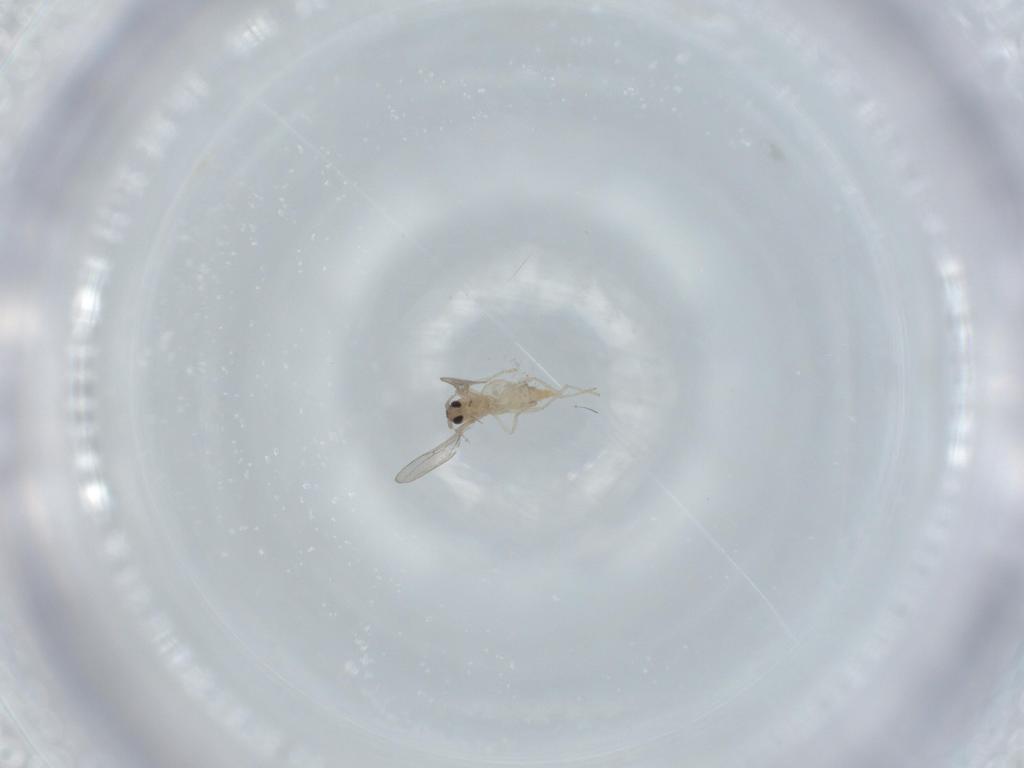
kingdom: Animalia
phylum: Arthropoda
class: Insecta
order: Diptera
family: Cecidomyiidae
